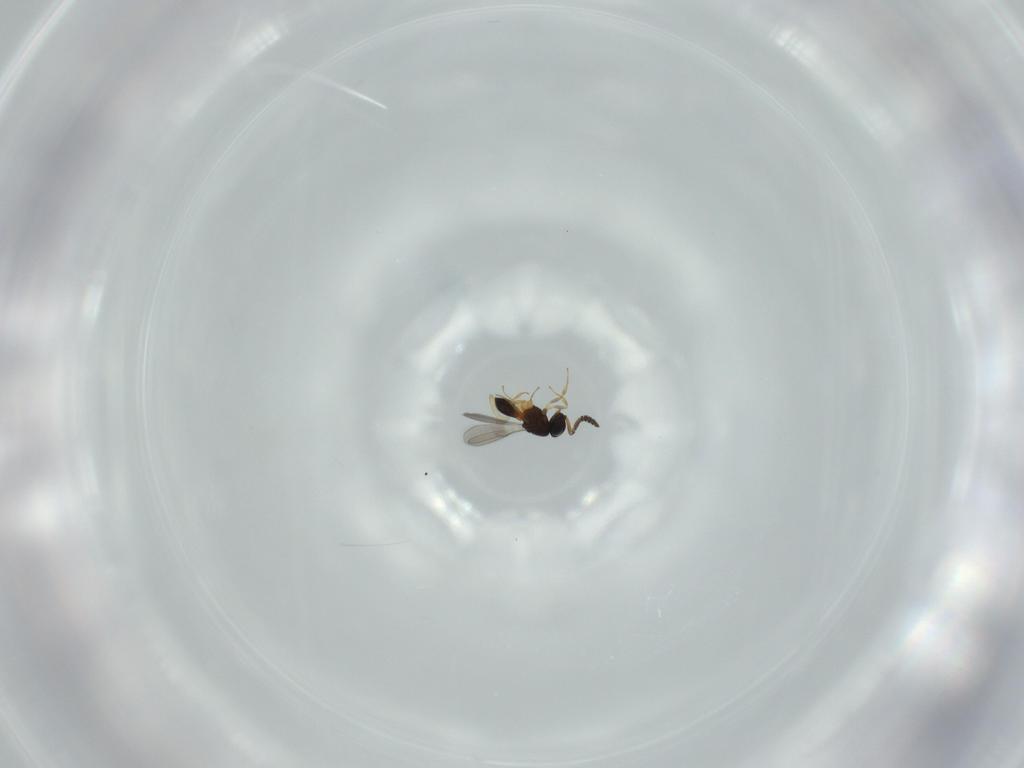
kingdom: Animalia
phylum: Arthropoda
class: Insecta
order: Hymenoptera
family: Scelionidae
